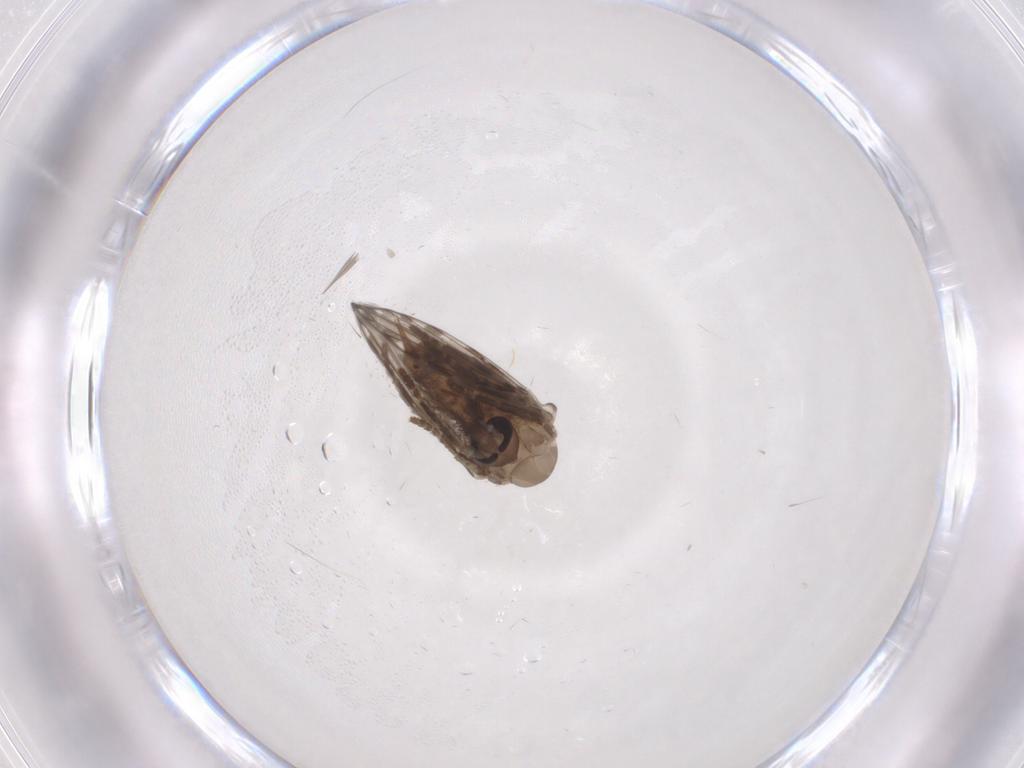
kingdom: Animalia
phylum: Arthropoda
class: Insecta
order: Diptera
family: Psychodidae
